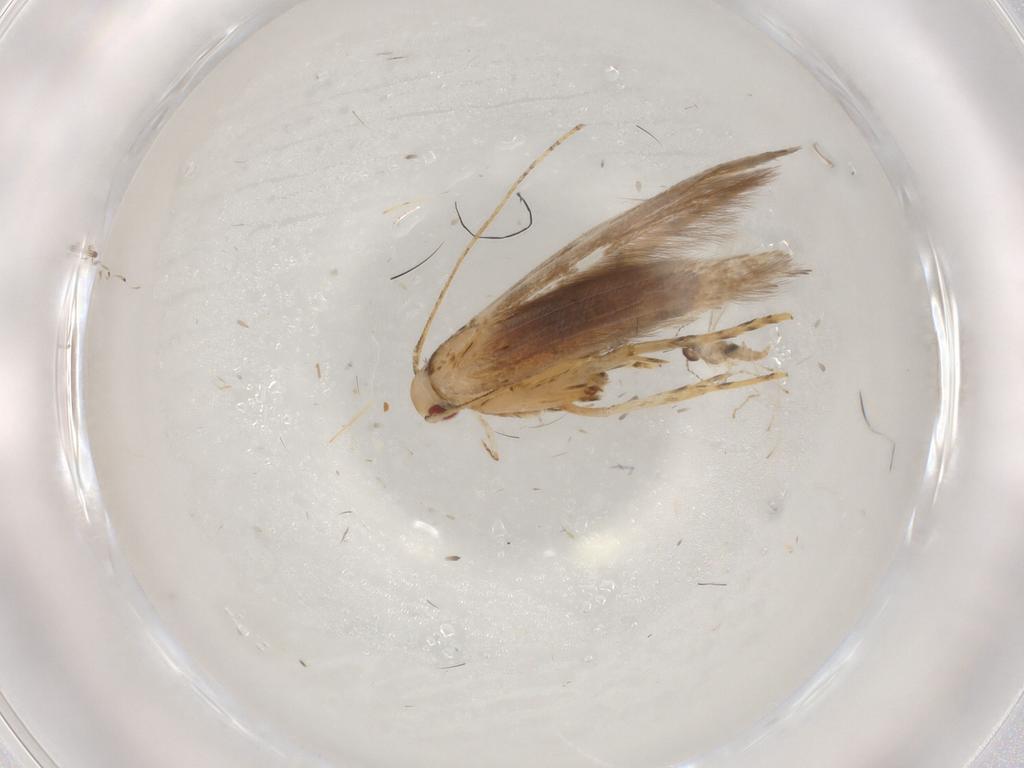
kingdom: Animalia
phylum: Arthropoda
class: Insecta
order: Lepidoptera
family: Cosmopterigidae
